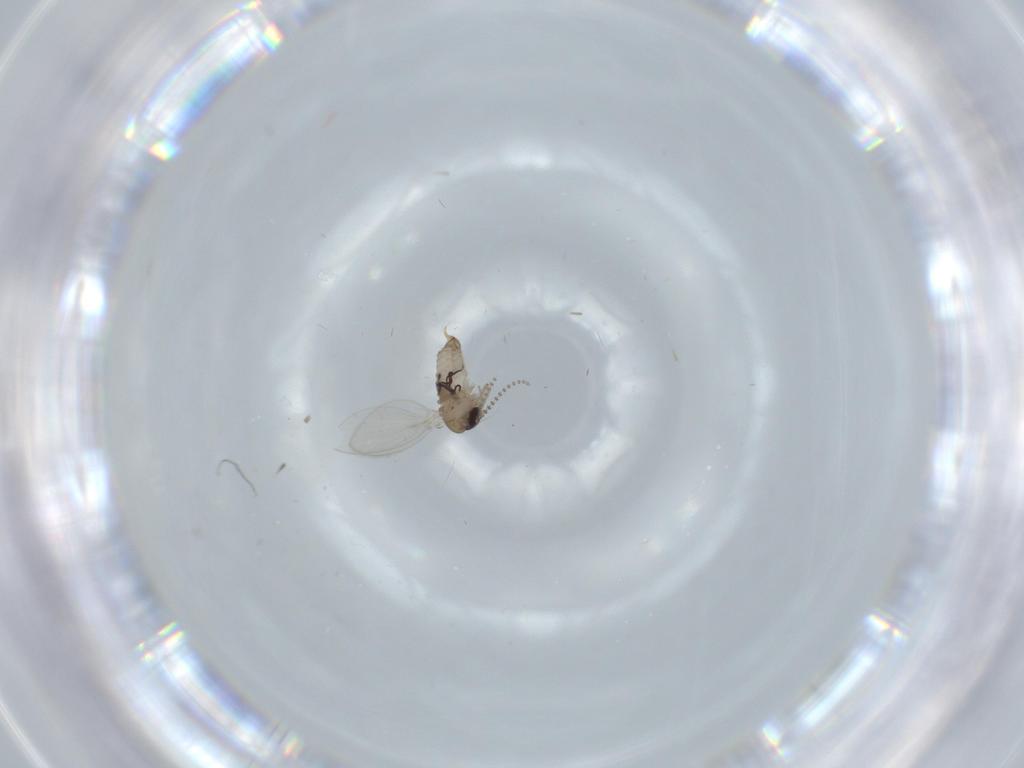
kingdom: Animalia
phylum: Arthropoda
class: Insecta
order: Diptera
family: Psychodidae
